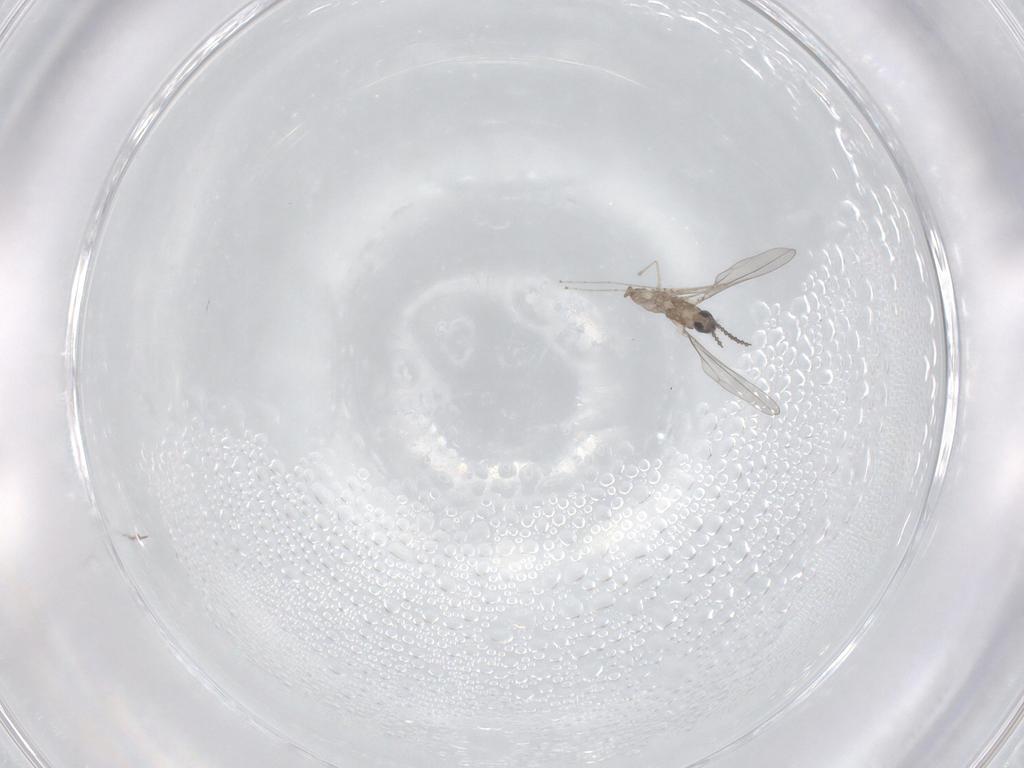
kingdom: Animalia
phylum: Arthropoda
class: Insecta
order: Diptera
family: Cecidomyiidae
